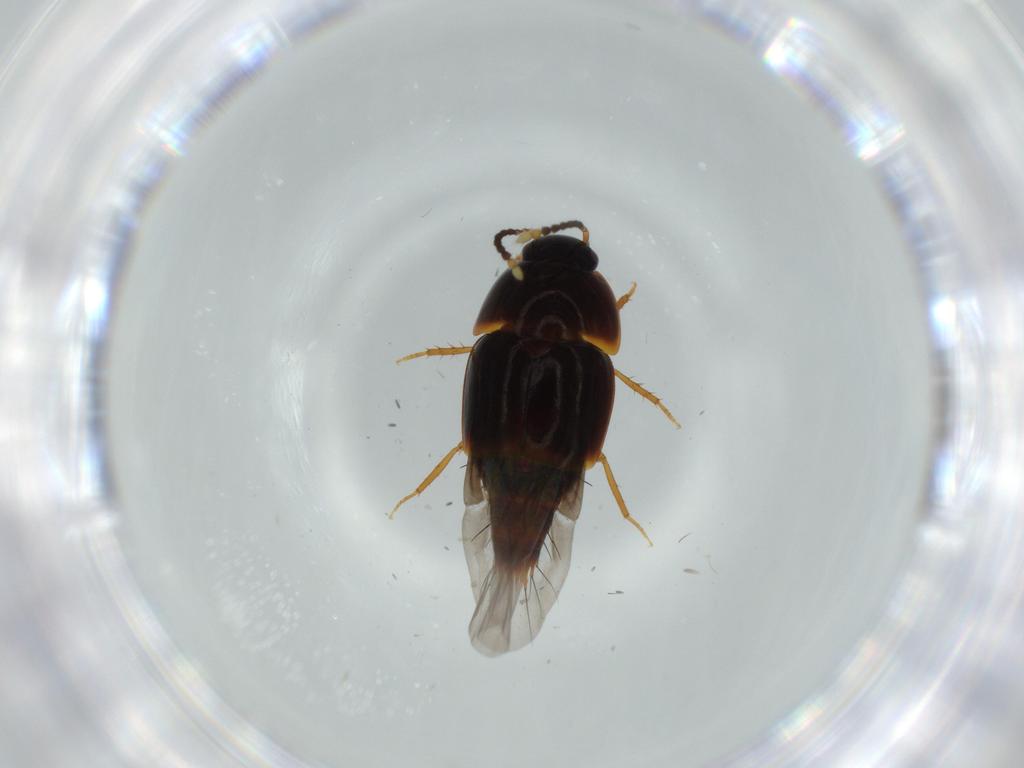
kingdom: Animalia
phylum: Arthropoda
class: Insecta
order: Coleoptera
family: Chrysomelidae
